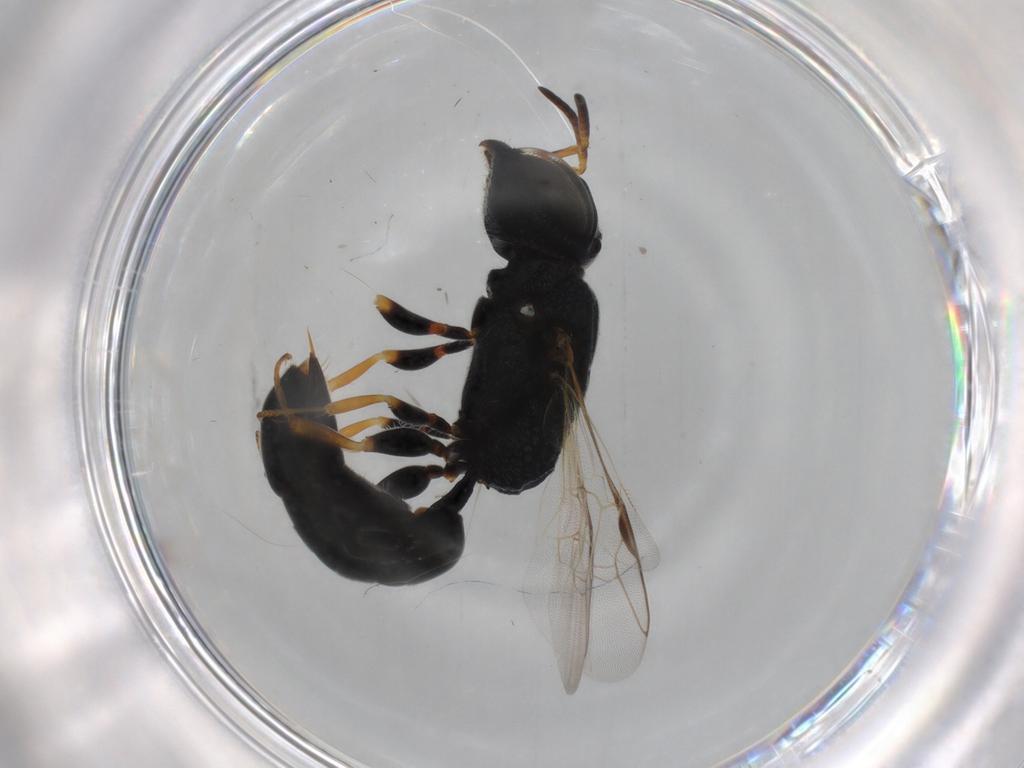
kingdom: Animalia
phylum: Arthropoda
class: Insecta
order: Hymenoptera
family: Crabronidae
